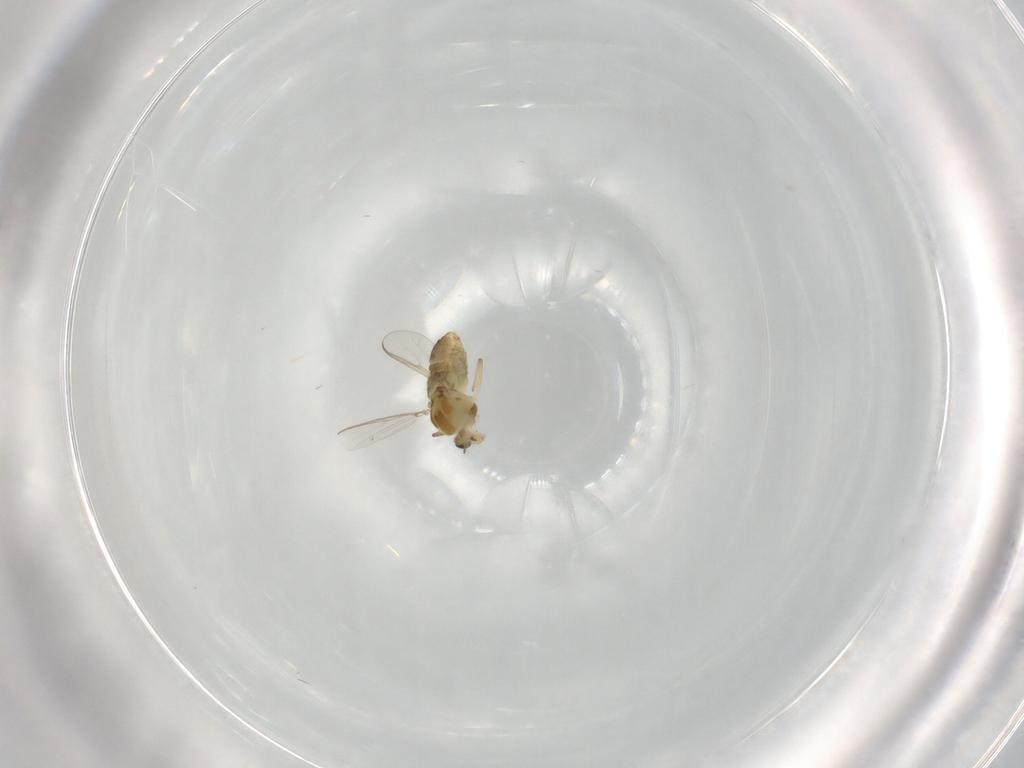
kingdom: Animalia
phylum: Arthropoda
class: Insecta
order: Diptera
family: Chironomidae
